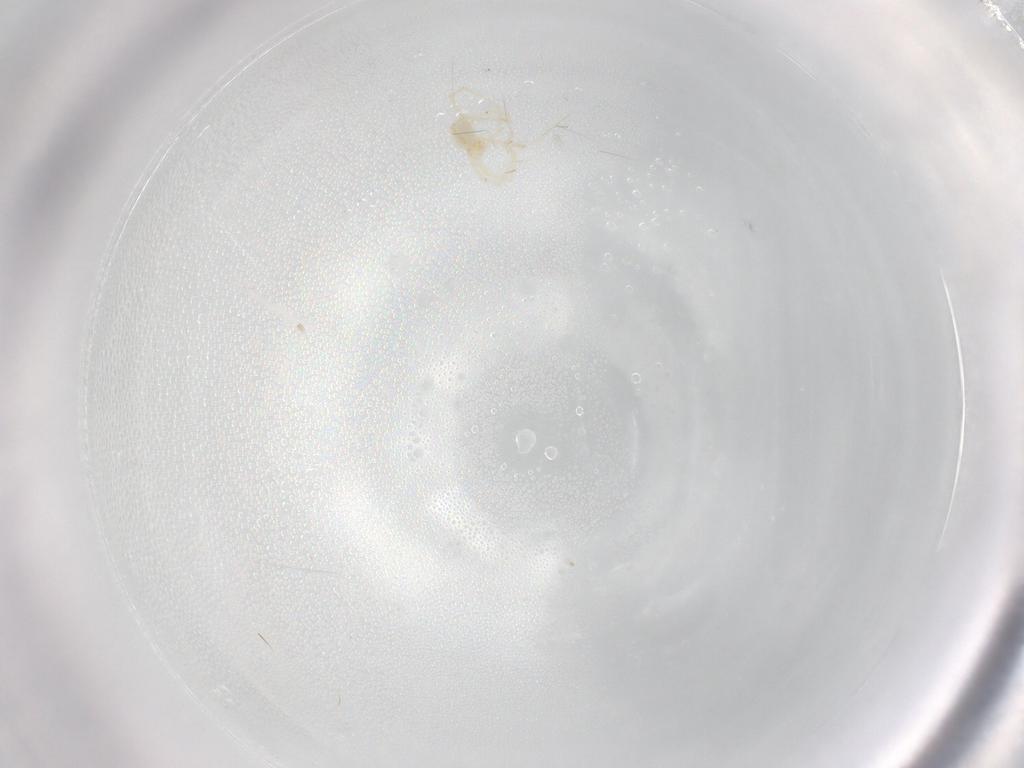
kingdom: Animalia
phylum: Arthropoda
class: Arachnida
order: Trombidiformes
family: Erythraeidae
